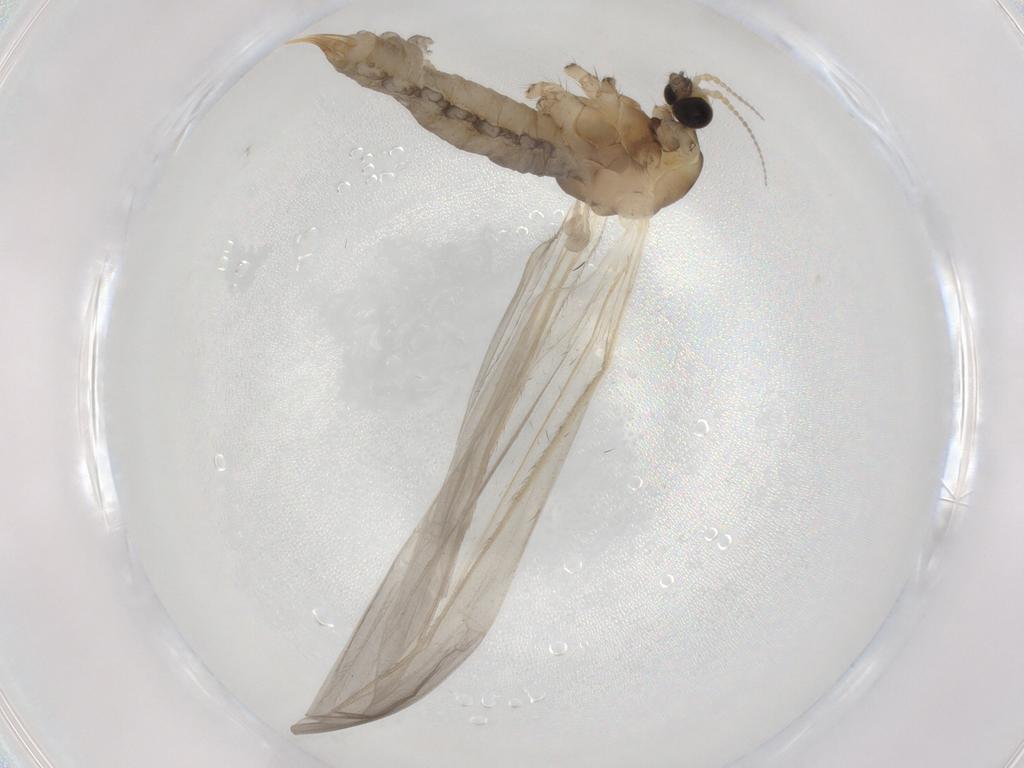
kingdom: Animalia
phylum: Arthropoda
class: Insecta
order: Diptera
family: Limoniidae
